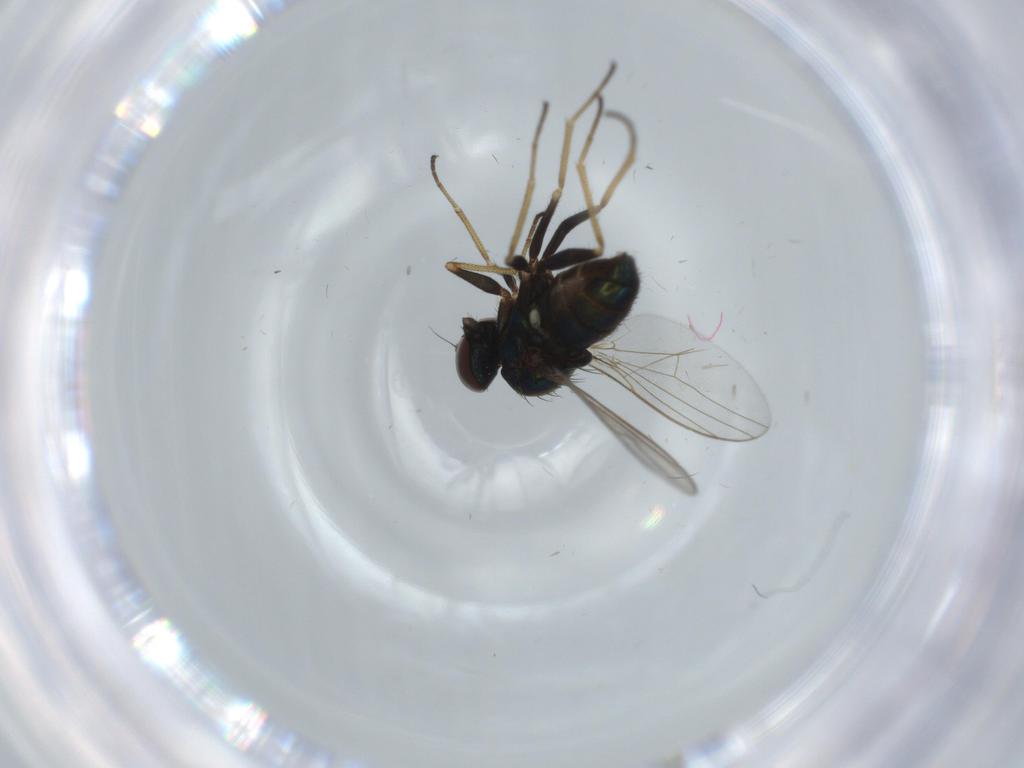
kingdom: Animalia
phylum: Arthropoda
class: Insecta
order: Diptera
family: Dolichopodidae
